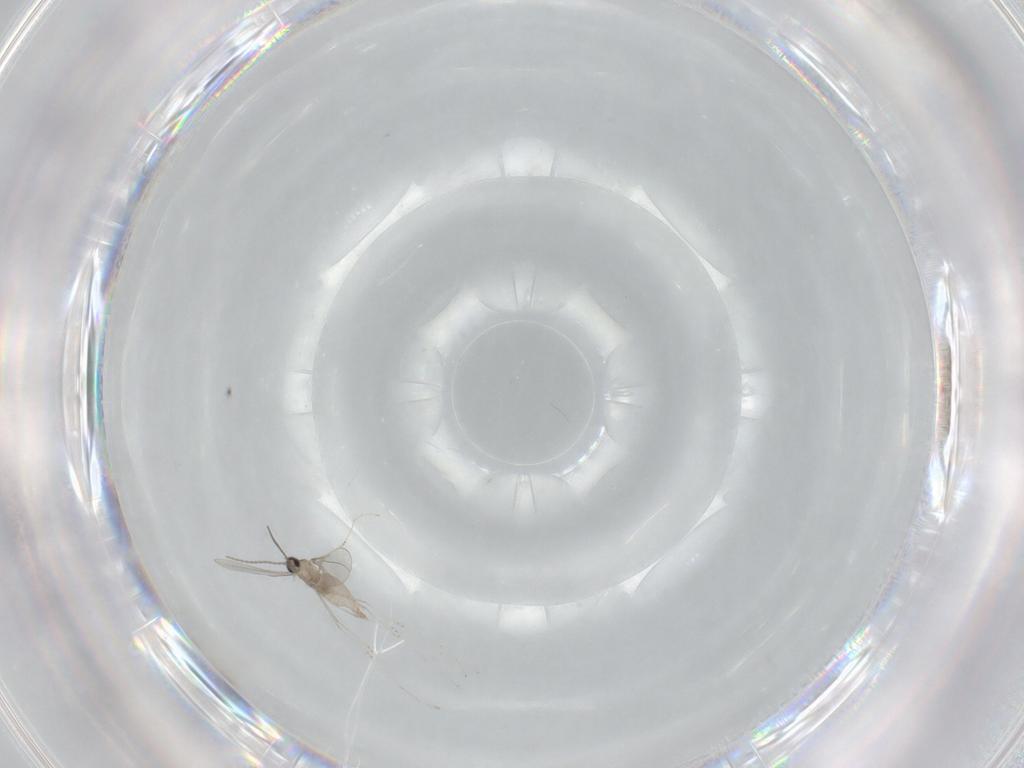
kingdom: Animalia
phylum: Arthropoda
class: Insecta
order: Diptera
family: Cecidomyiidae
